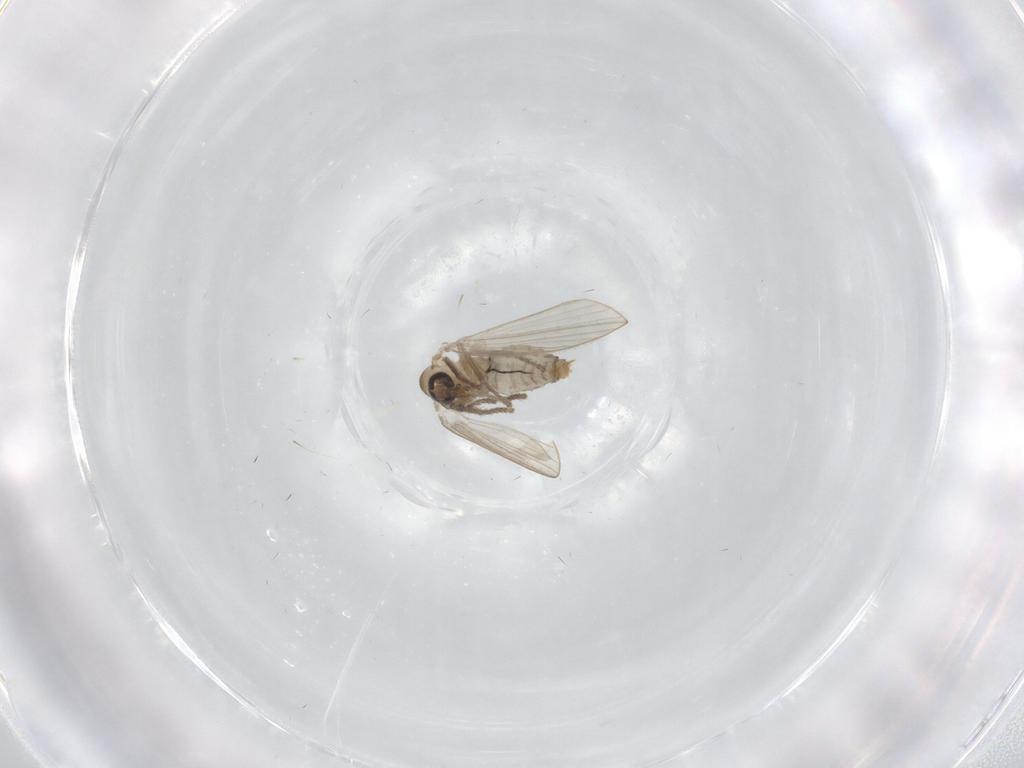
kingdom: Animalia
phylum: Arthropoda
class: Insecta
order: Diptera
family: Psychodidae
